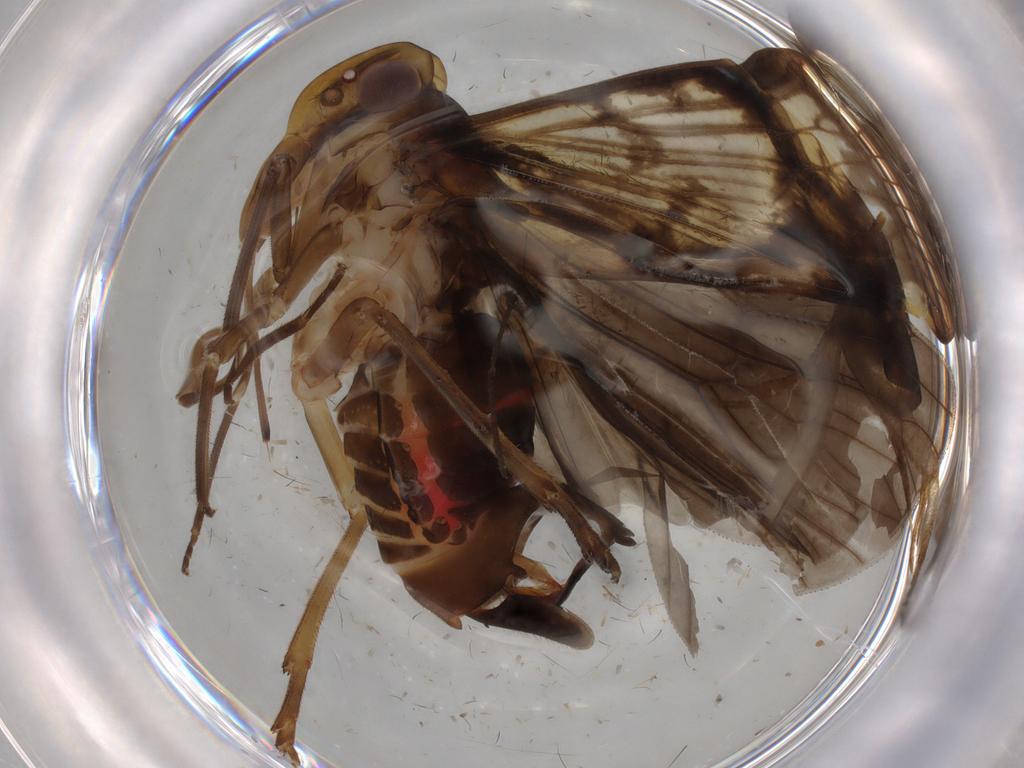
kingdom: Animalia
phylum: Arthropoda
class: Insecta
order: Hemiptera
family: Cixiidae
